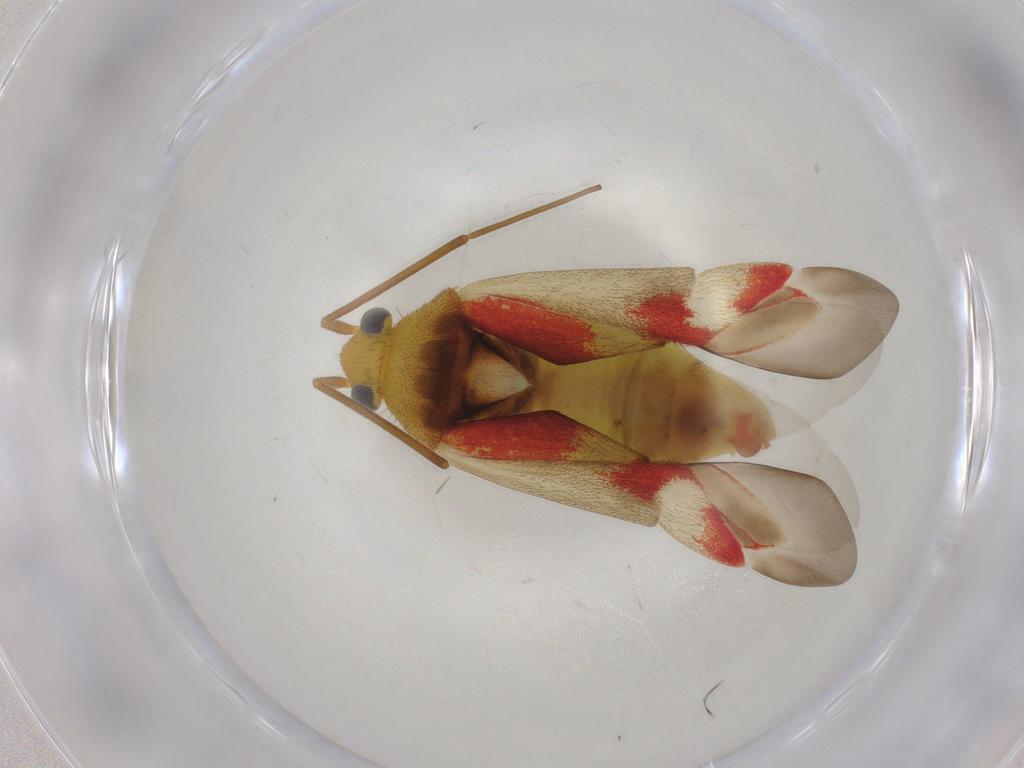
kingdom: Animalia
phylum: Arthropoda
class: Insecta
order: Hemiptera
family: Miridae
